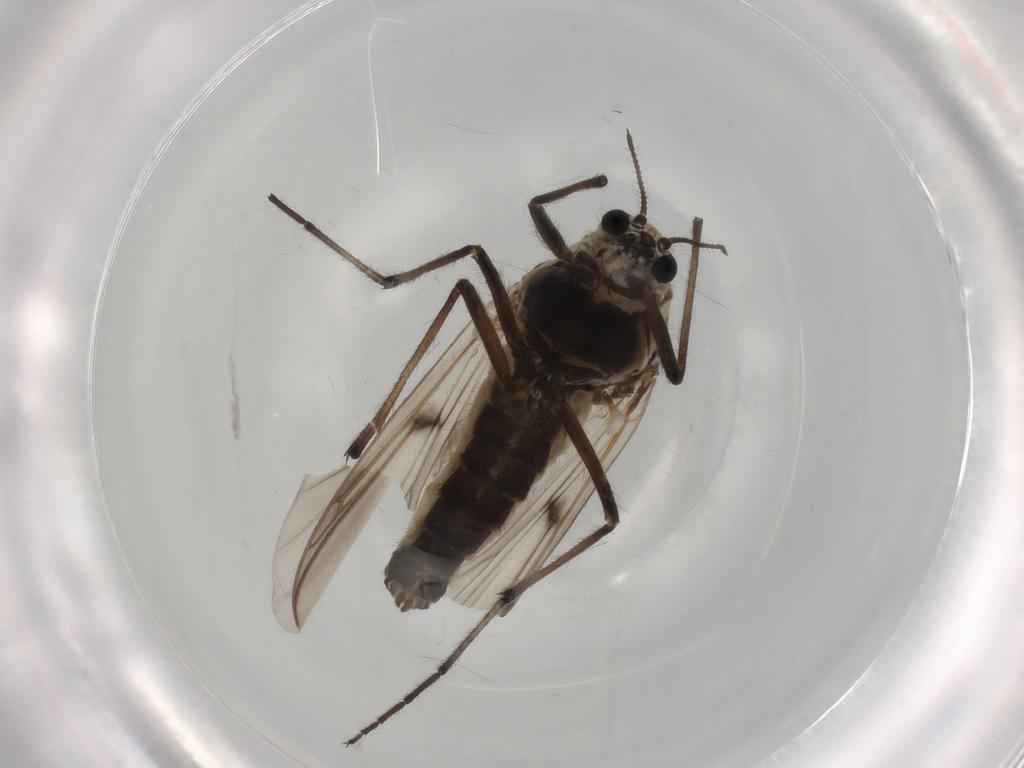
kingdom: Animalia
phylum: Arthropoda
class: Insecta
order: Diptera
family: Chironomidae
